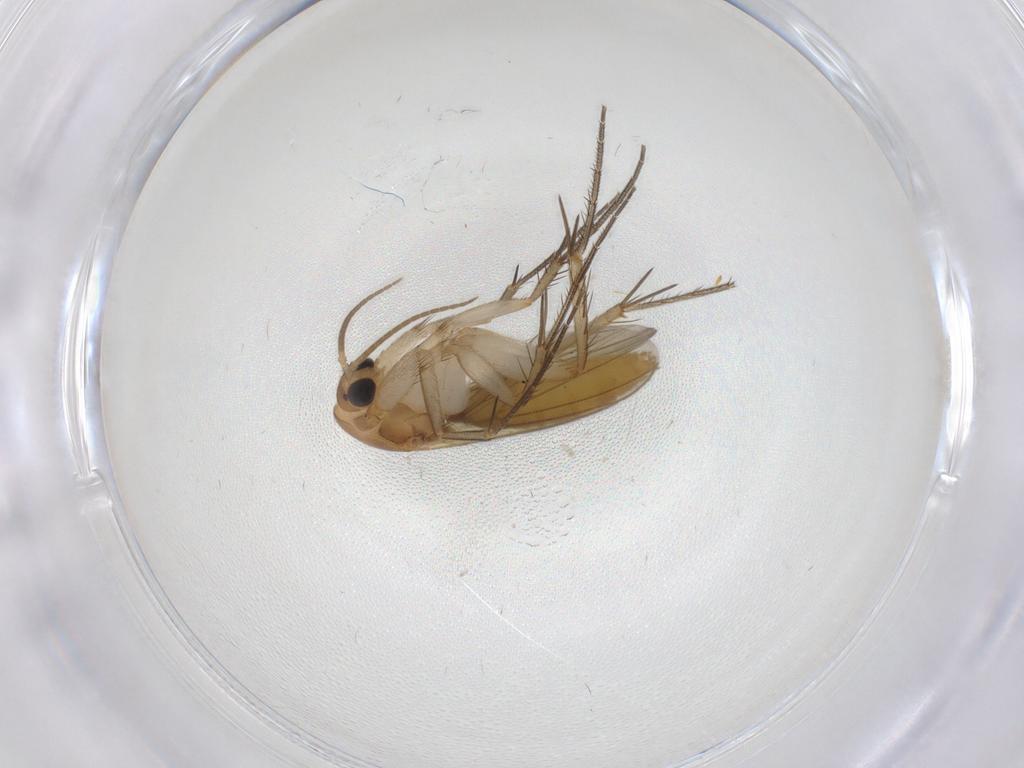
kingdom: Animalia
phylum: Arthropoda
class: Insecta
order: Diptera
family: Mycetophilidae
